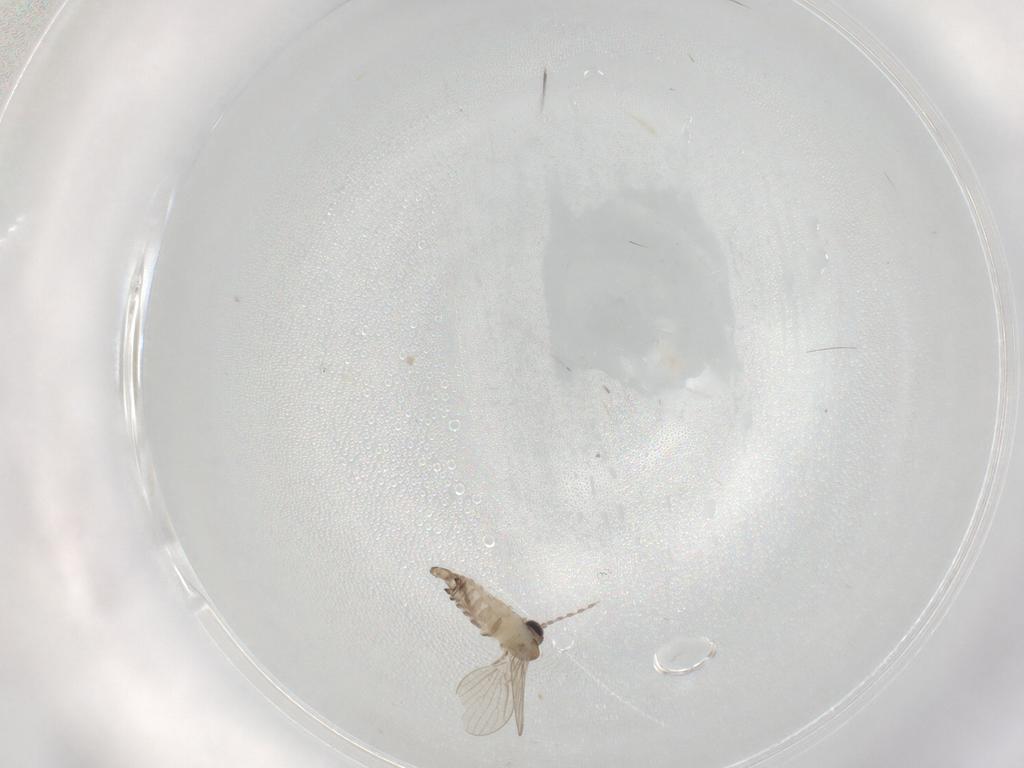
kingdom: Animalia
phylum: Arthropoda
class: Insecta
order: Diptera
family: Psychodidae
